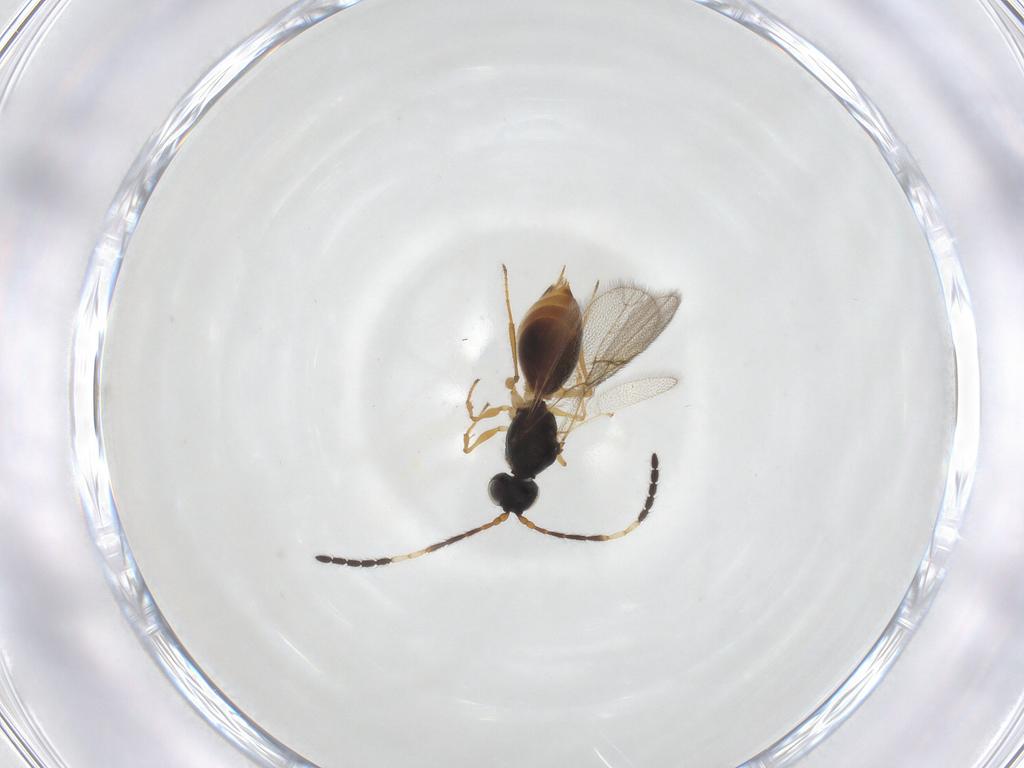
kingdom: Animalia
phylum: Arthropoda
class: Insecta
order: Hymenoptera
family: Figitidae
